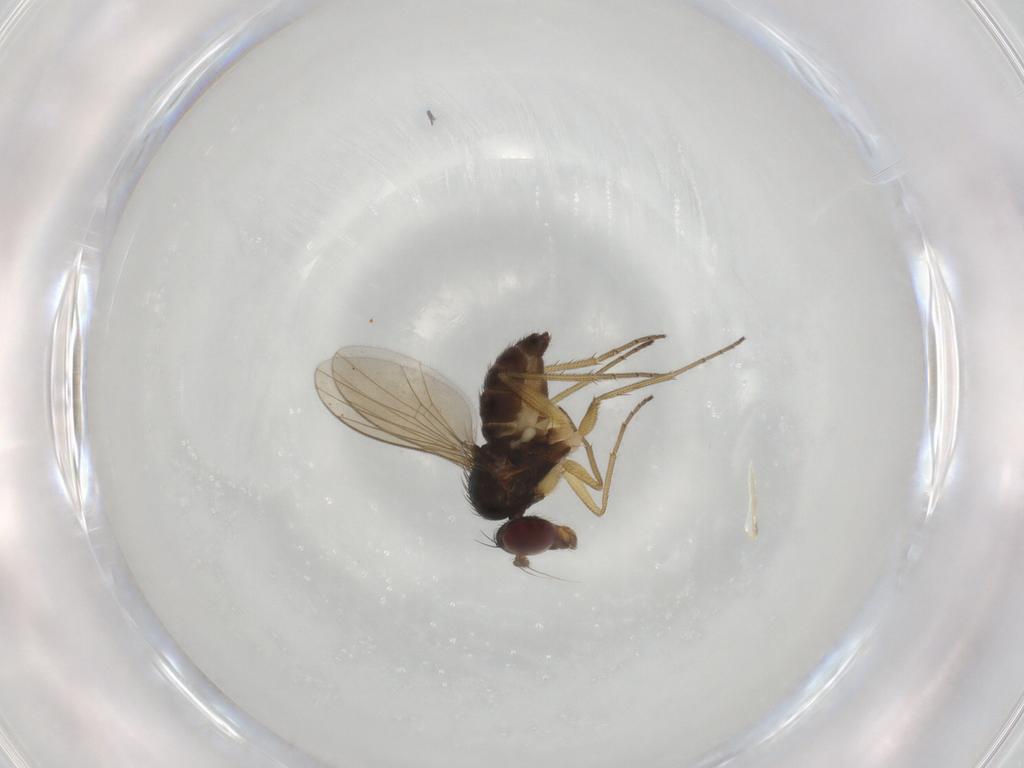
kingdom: Animalia
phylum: Arthropoda
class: Insecta
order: Diptera
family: Dolichopodidae
